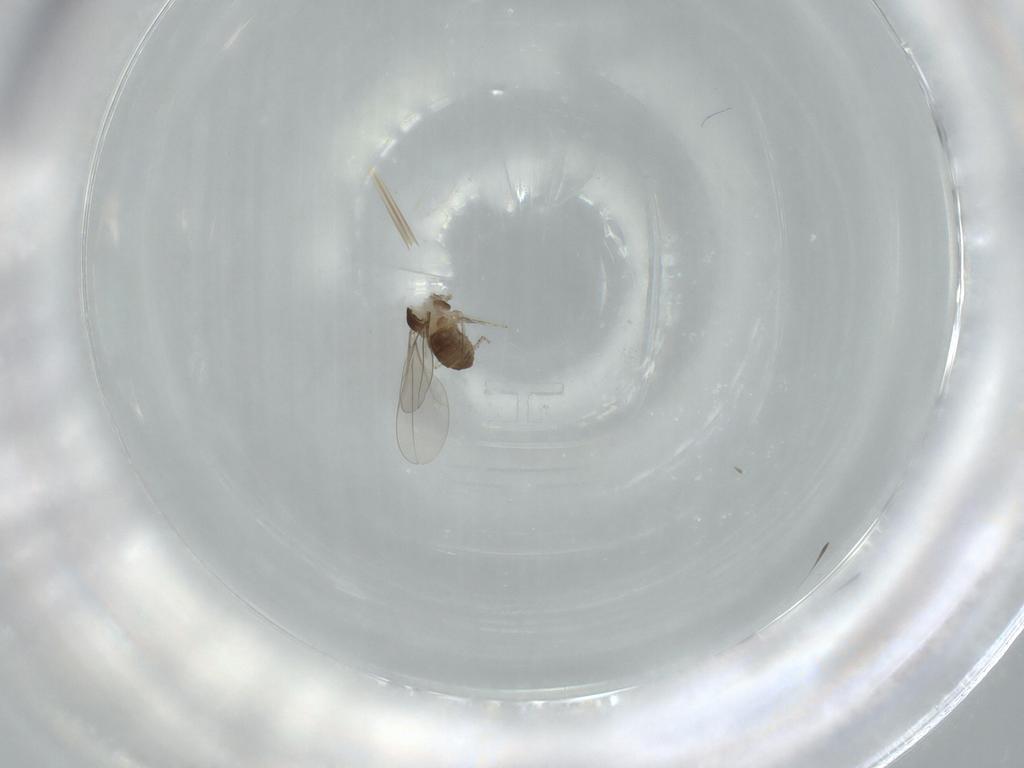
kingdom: Animalia
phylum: Arthropoda
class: Insecta
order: Diptera
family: Cecidomyiidae
